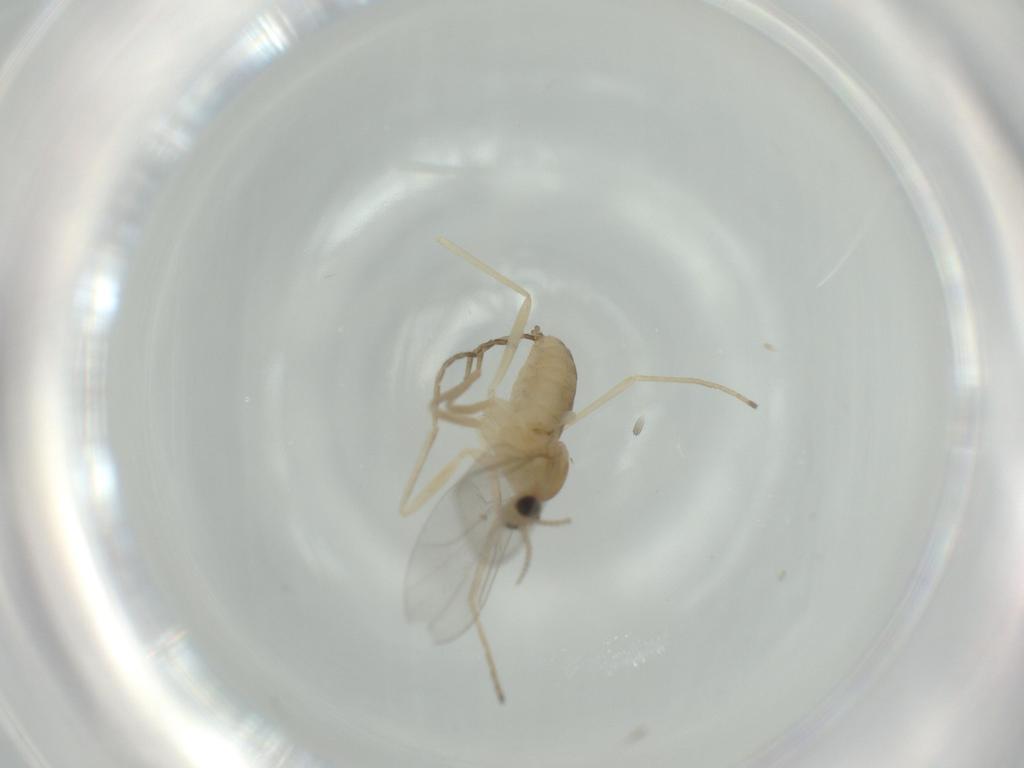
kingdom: Animalia
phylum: Arthropoda
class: Insecta
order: Diptera
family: Cecidomyiidae
